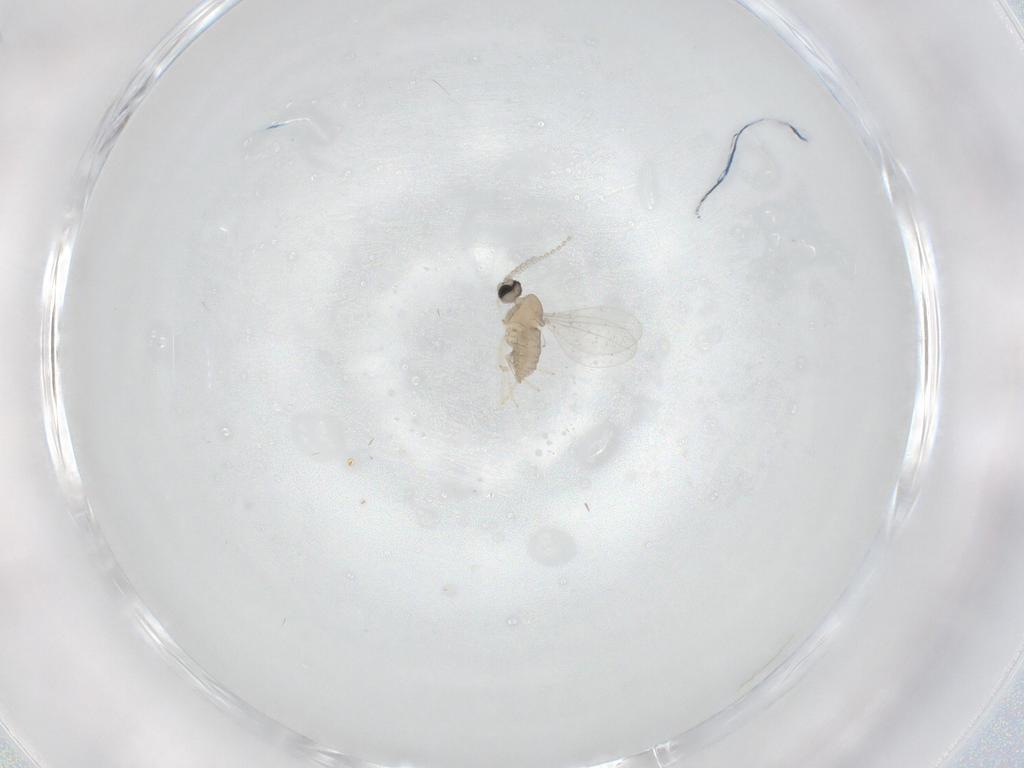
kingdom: Animalia
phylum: Arthropoda
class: Insecta
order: Diptera
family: Cecidomyiidae
